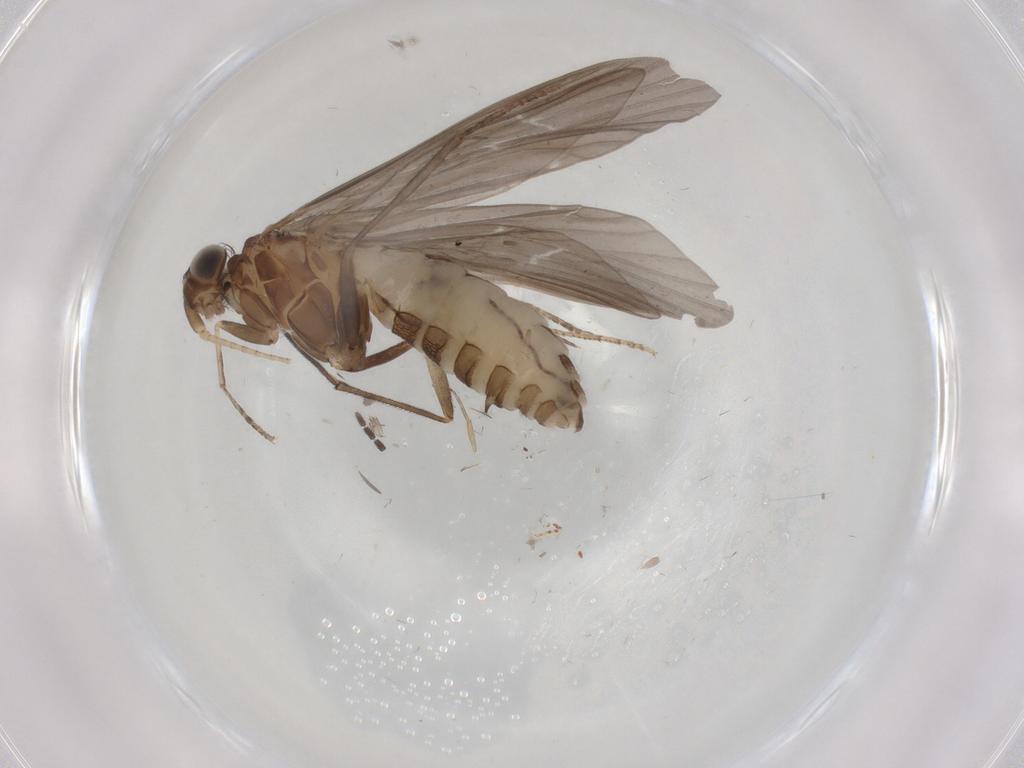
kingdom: Animalia
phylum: Arthropoda
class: Insecta
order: Trichoptera
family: Helicopsychidae
